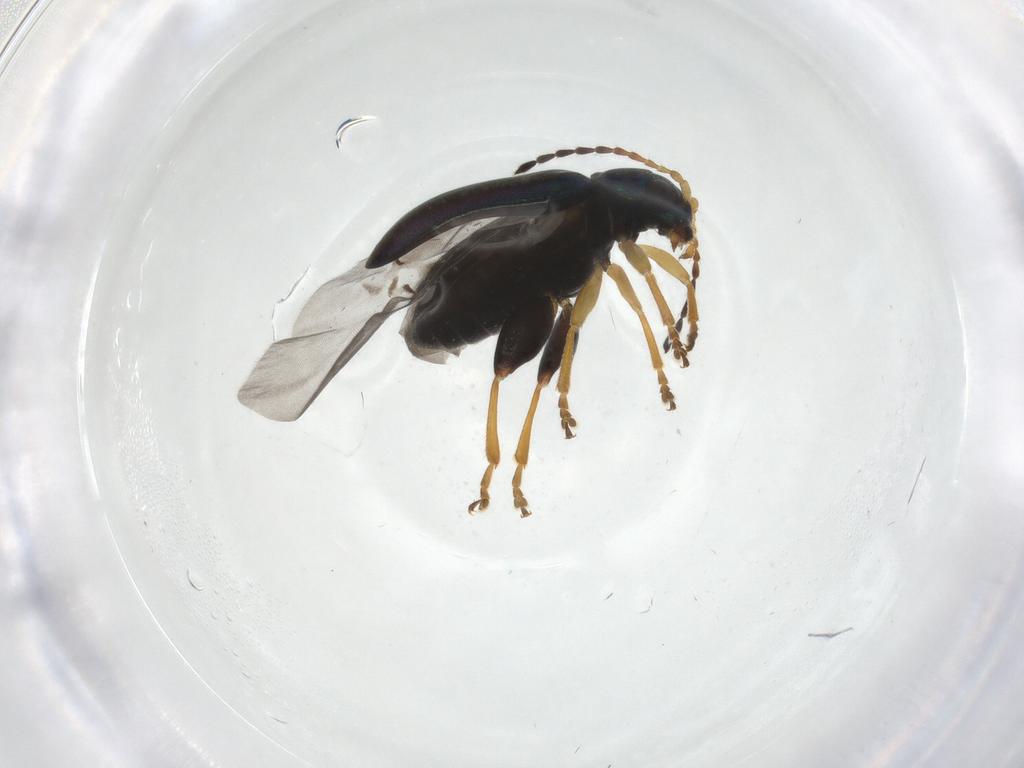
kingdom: Animalia
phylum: Arthropoda
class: Insecta
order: Coleoptera
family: Chrysomelidae
